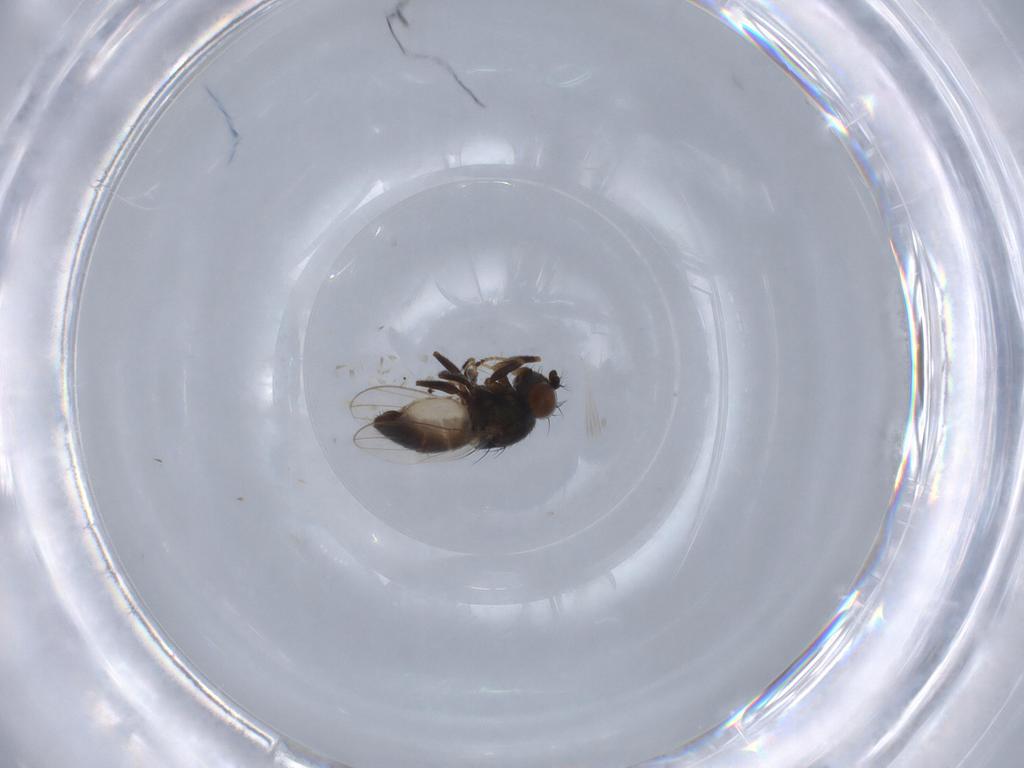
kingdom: Animalia
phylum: Arthropoda
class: Insecta
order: Diptera
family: Ephydridae
